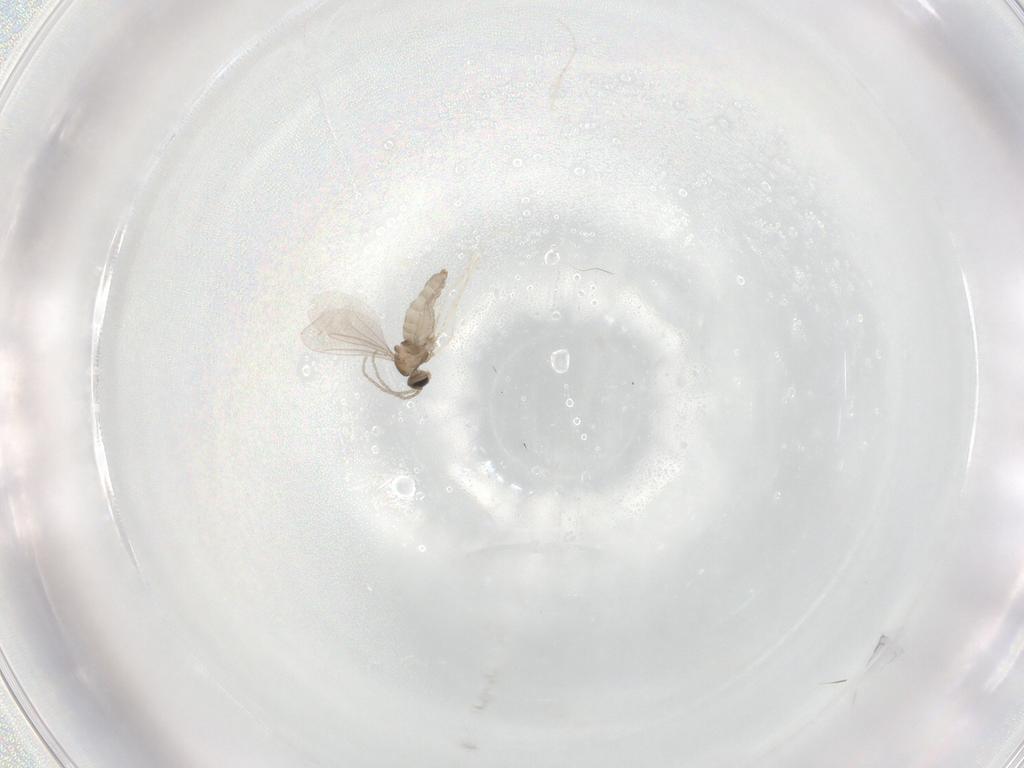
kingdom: Animalia
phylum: Arthropoda
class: Insecta
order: Diptera
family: Cecidomyiidae
